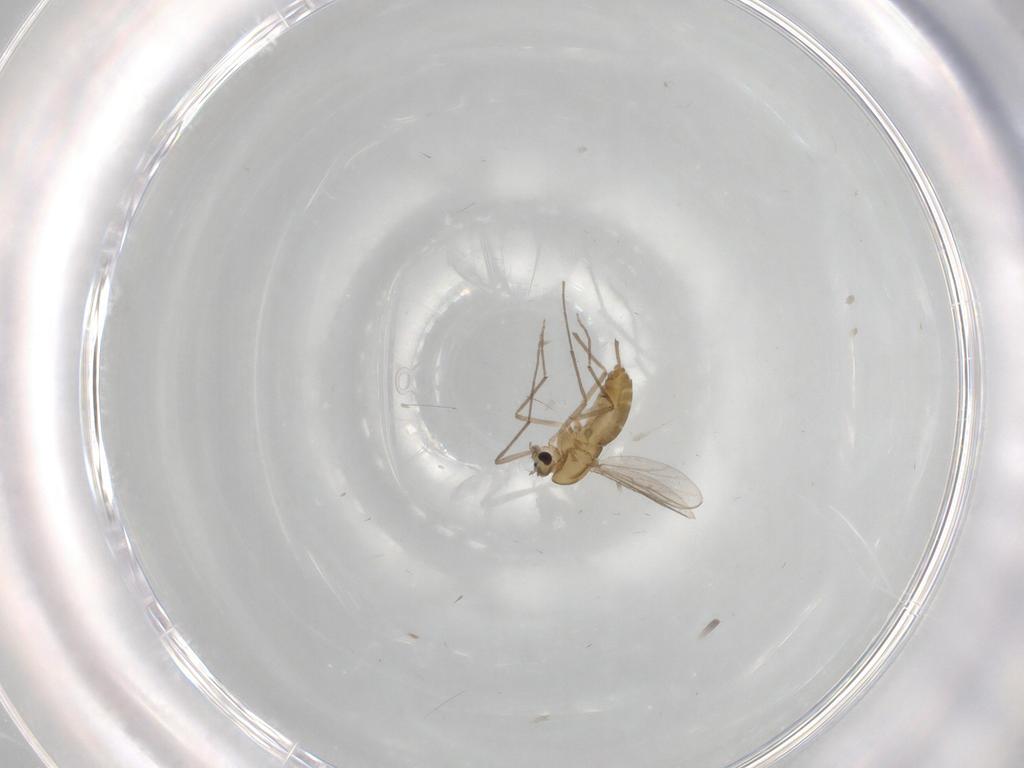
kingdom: Animalia
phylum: Arthropoda
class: Insecta
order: Diptera
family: Chironomidae
